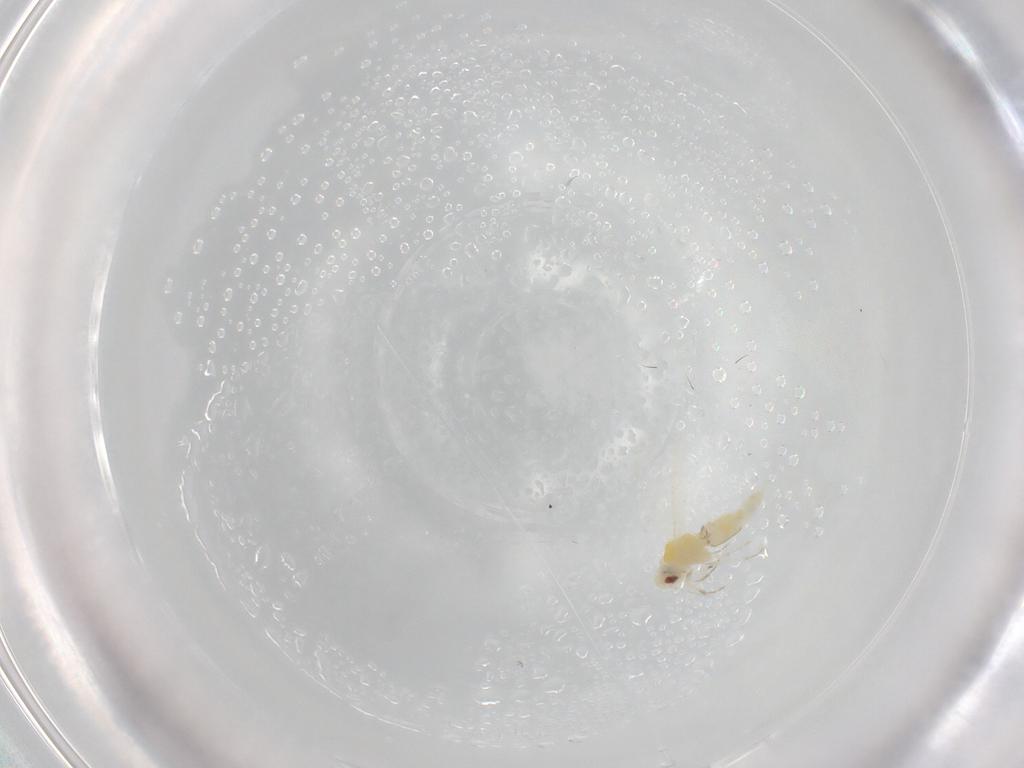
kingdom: Animalia
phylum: Arthropoda
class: Insecta
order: Hemiptera
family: Aleyrodidae
